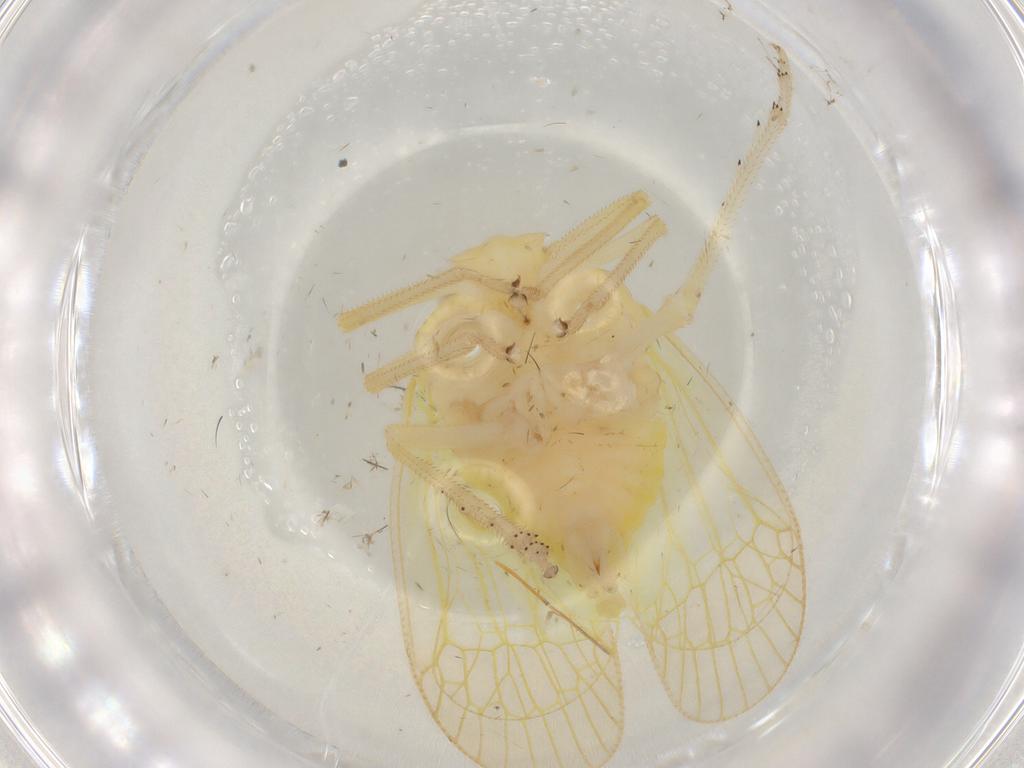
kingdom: Animalia
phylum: Arthropoda
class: Insecta
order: Hemiptera
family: Tropiduchidae
